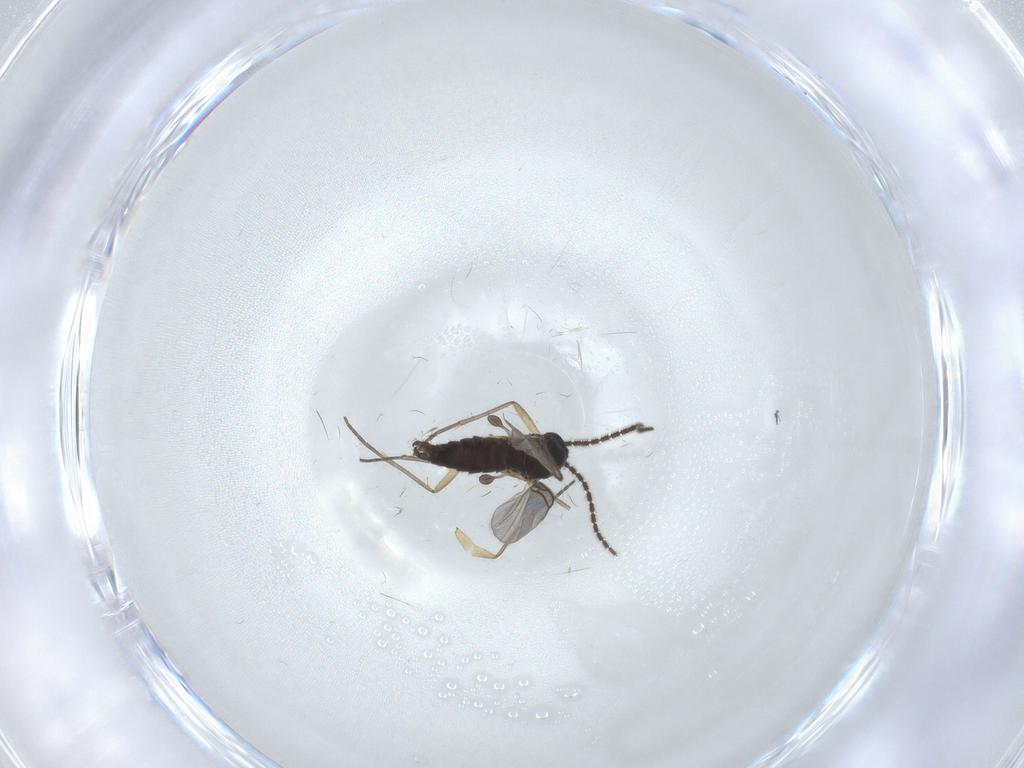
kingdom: Animalia
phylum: Arthropoda
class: Insecta
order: Diptera
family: Sciaridae
